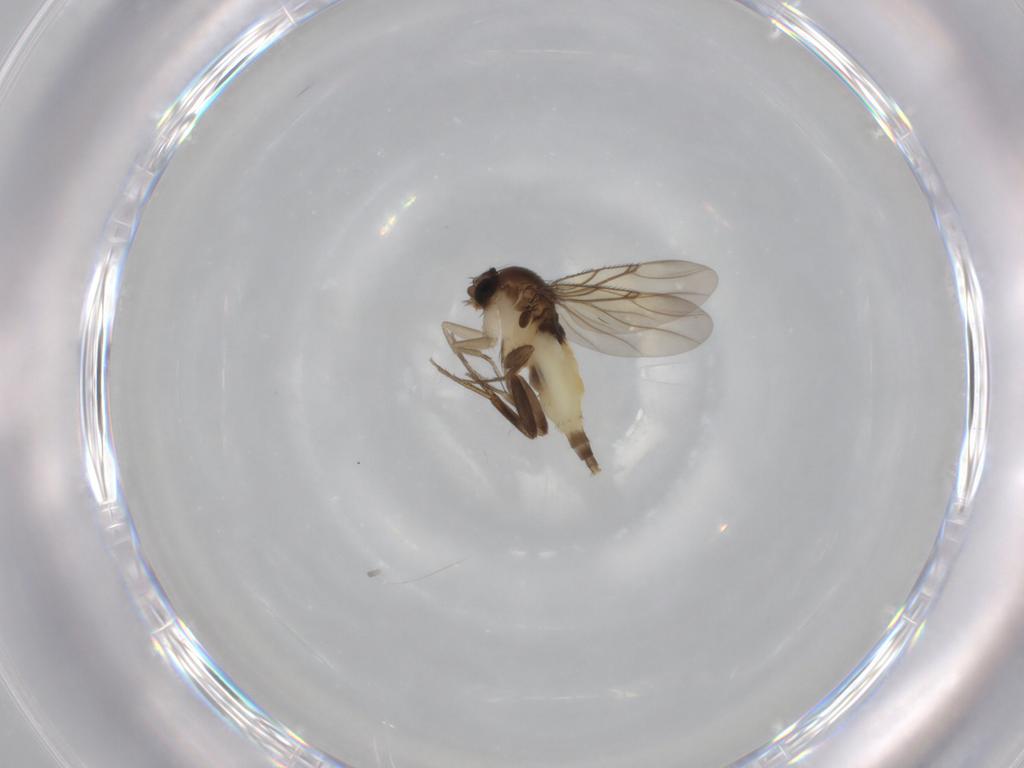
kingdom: Animalia
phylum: Arthropoda
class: Insecta
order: Diptera
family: Phoridae
